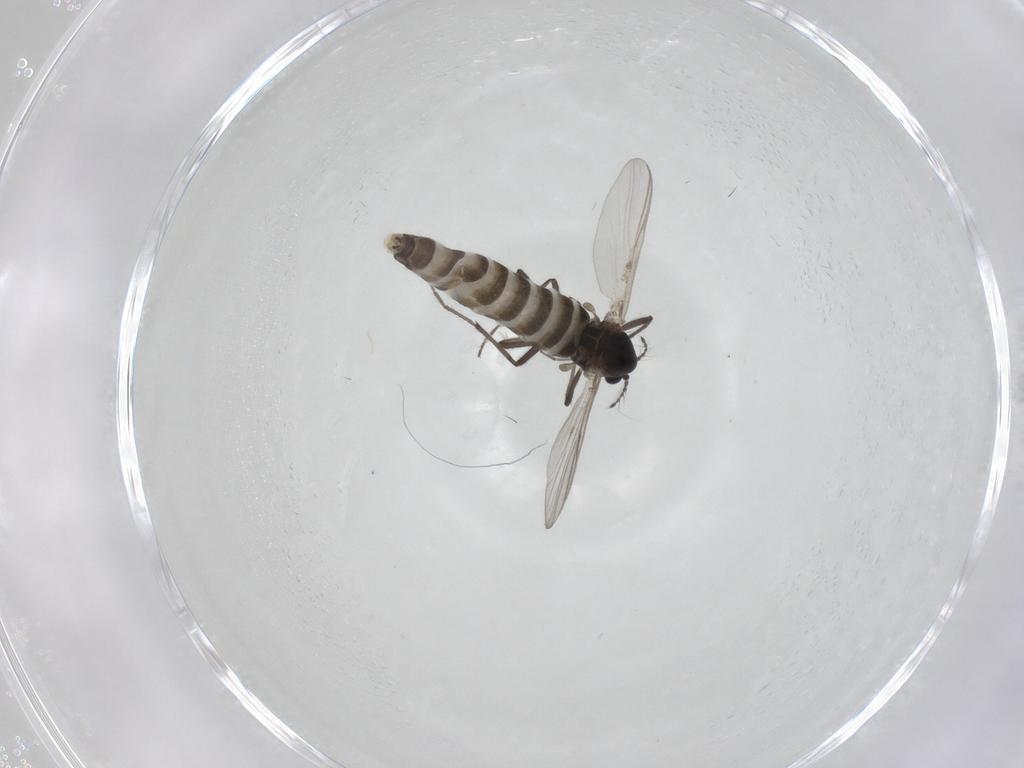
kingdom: Animalia
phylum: Arthropoda
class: Insecta
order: Diptera
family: Chironomidae
